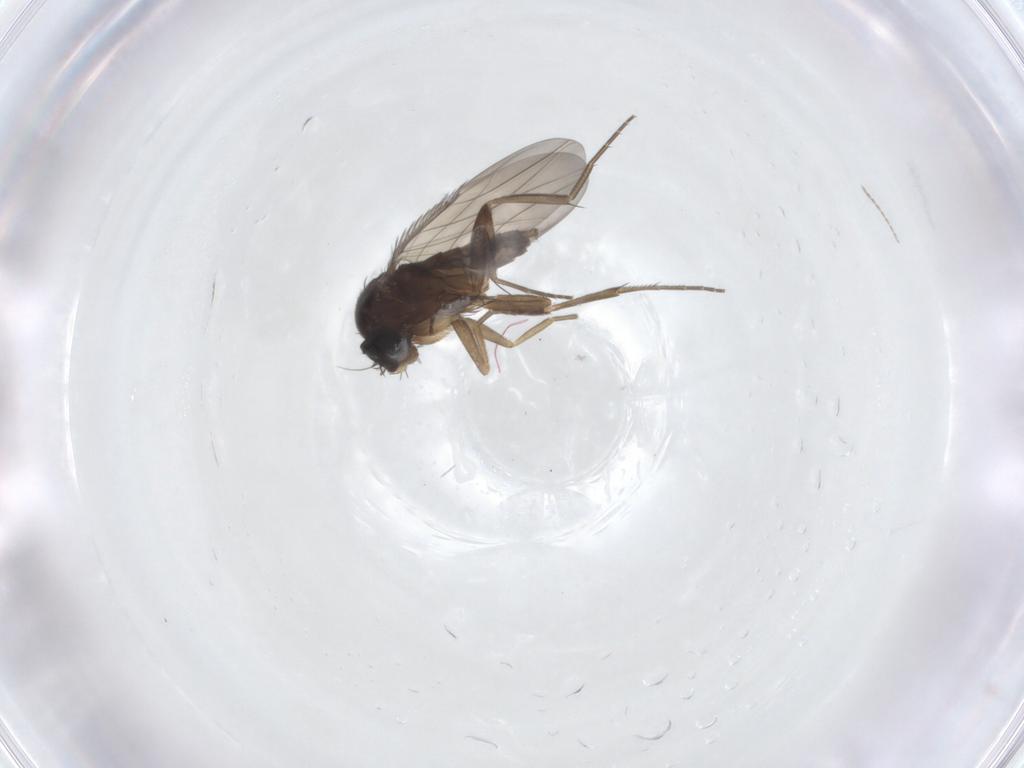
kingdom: Animalia
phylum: Arthropoda
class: Insecta
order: Diptera
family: Phoridae
